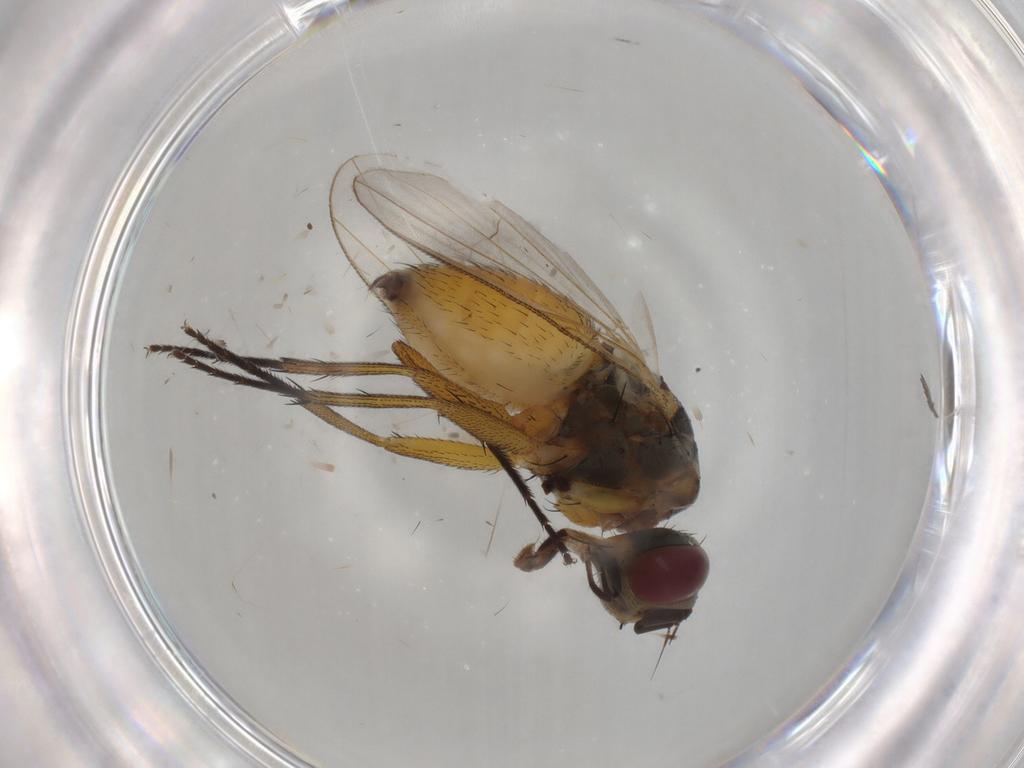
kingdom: Animalia
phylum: Arthropoda
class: Insecta
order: Diptera
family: Muscidae
